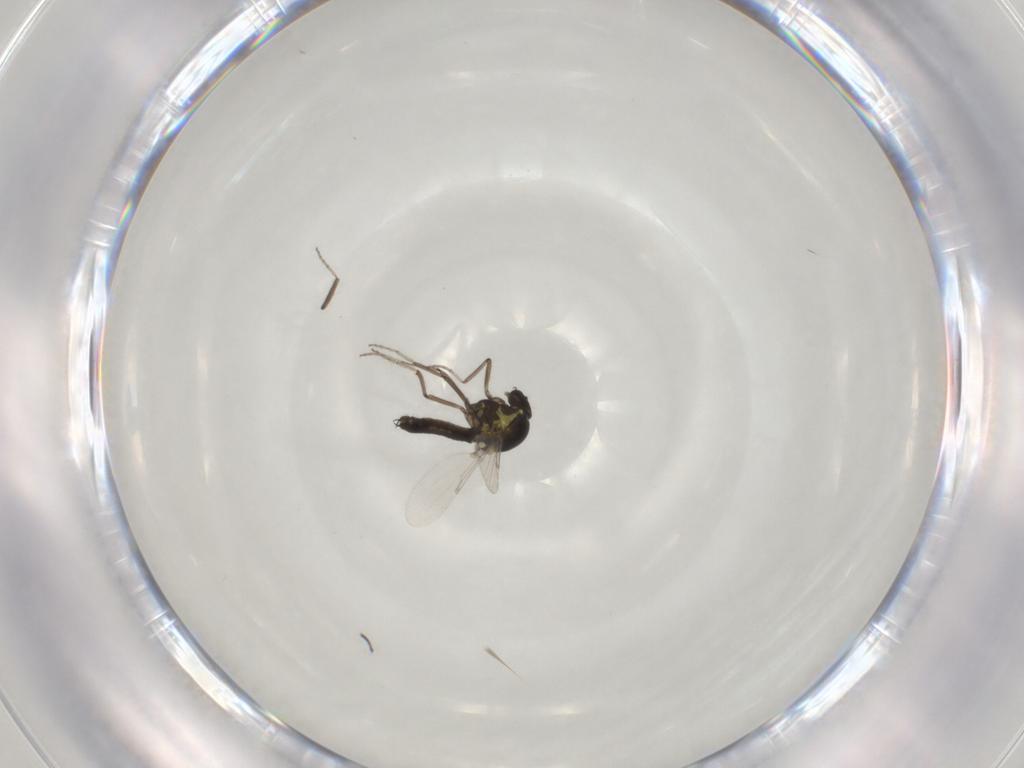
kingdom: Animalia
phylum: Arthropoda
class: Insecta
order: Diptera
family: Ceratopogonidae
